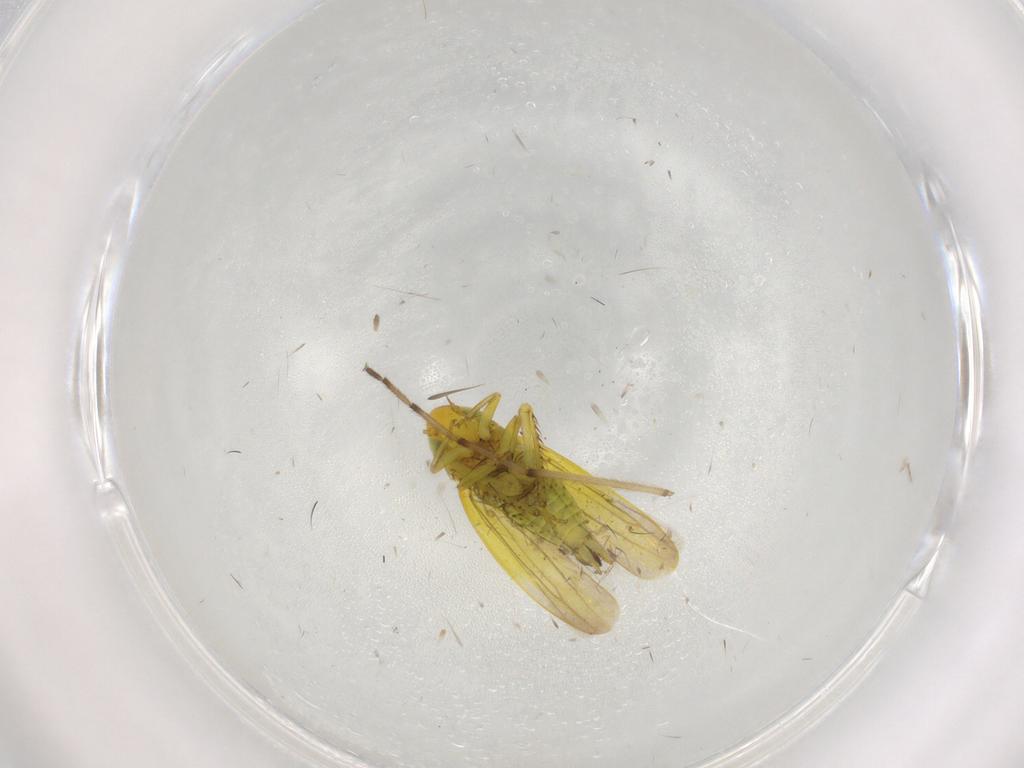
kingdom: Animalia
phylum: Arthropoda
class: Insecta
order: Hemiptera
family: Cicadellidae
